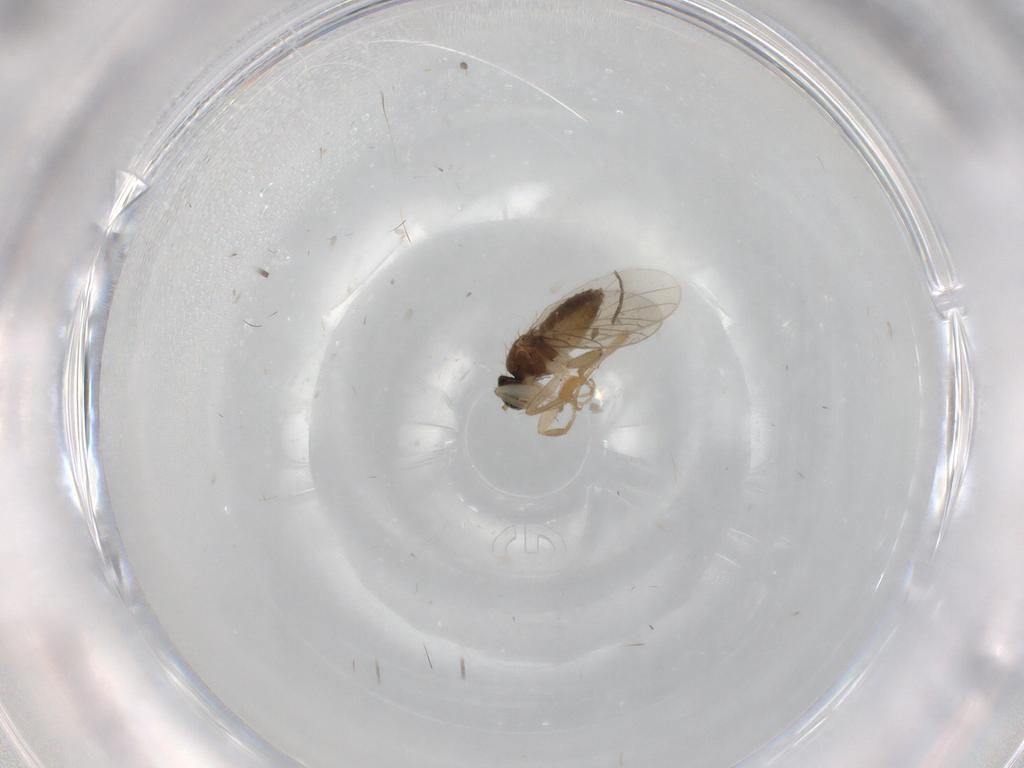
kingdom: Animalia
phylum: Arthropoda
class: Insecta
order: Diptera
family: Hybotidae
